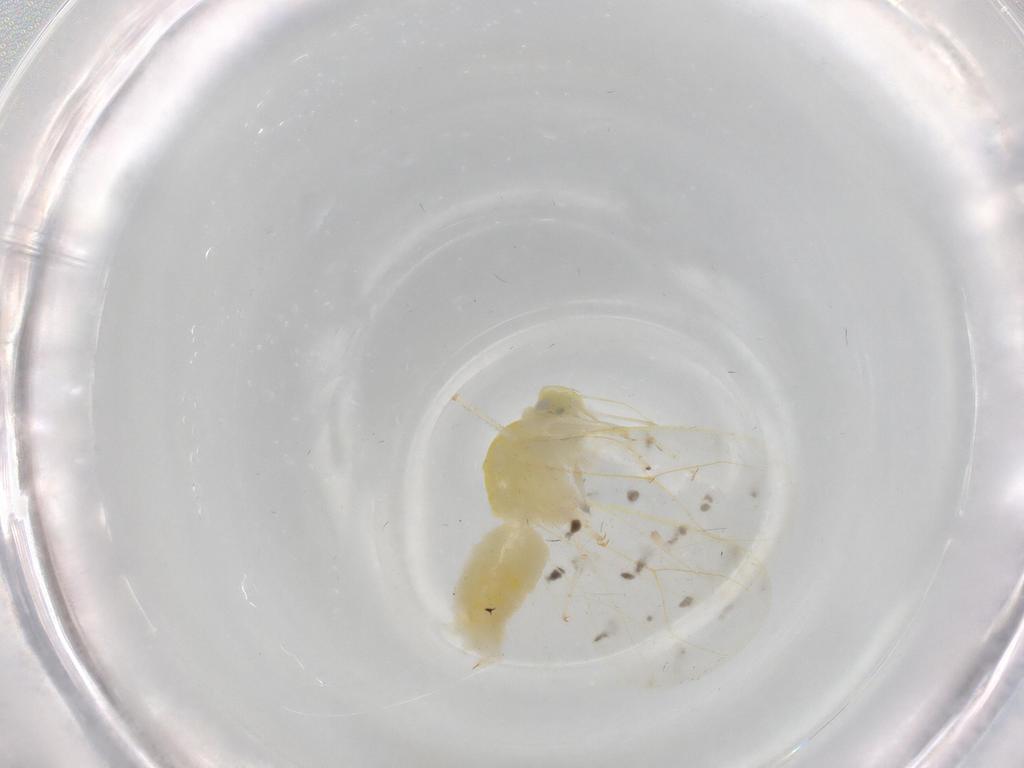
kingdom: Animalia
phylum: Arthropoda
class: Insecta
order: Hemiptera
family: Aleyrodidae
